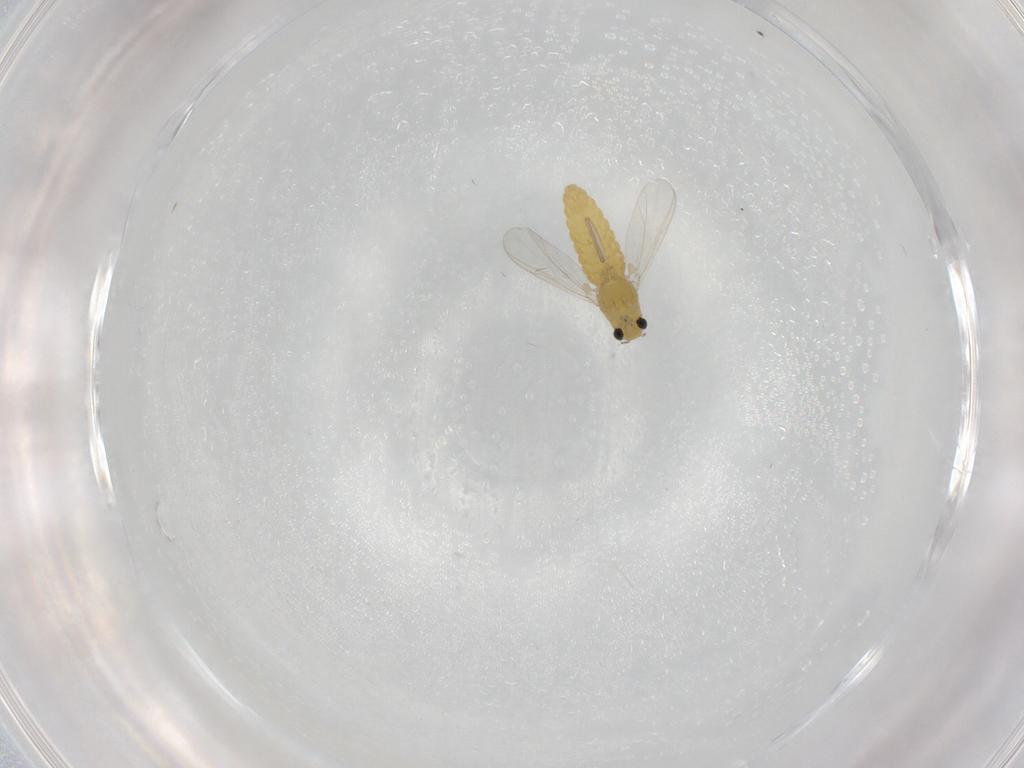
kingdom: Animalia
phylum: Arthropoda
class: Insecta
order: Diptera
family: Chironomidae
